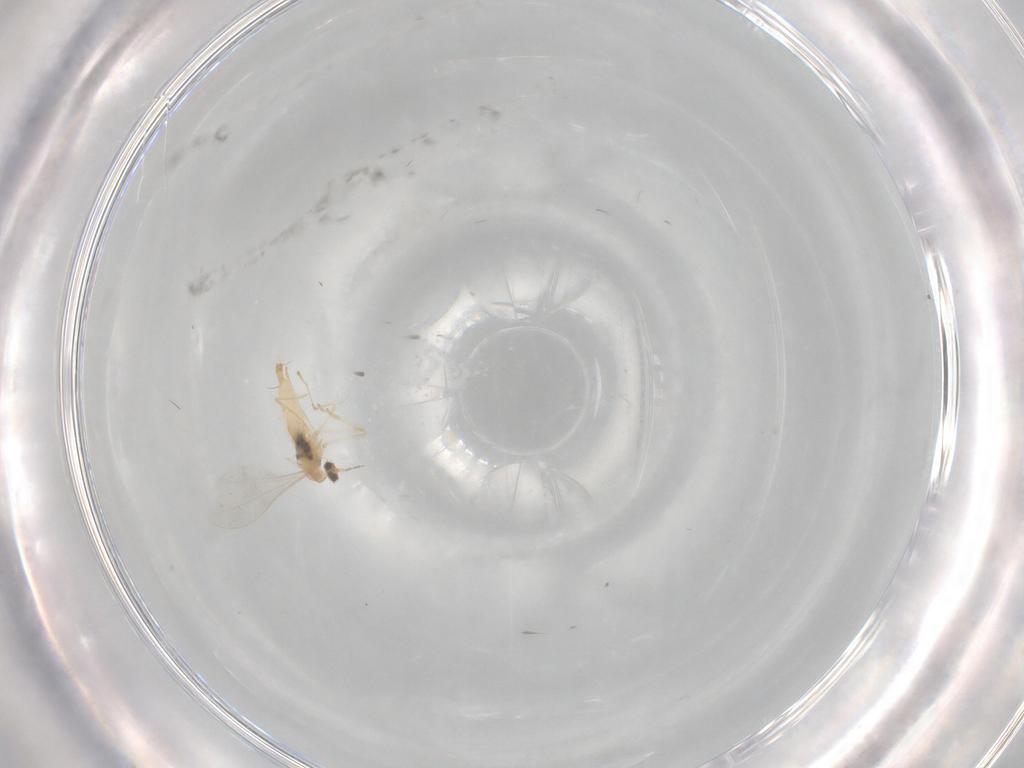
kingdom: Animalia
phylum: Arthropoda
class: Insecta
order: Diptera
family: Cecidomyiidae
